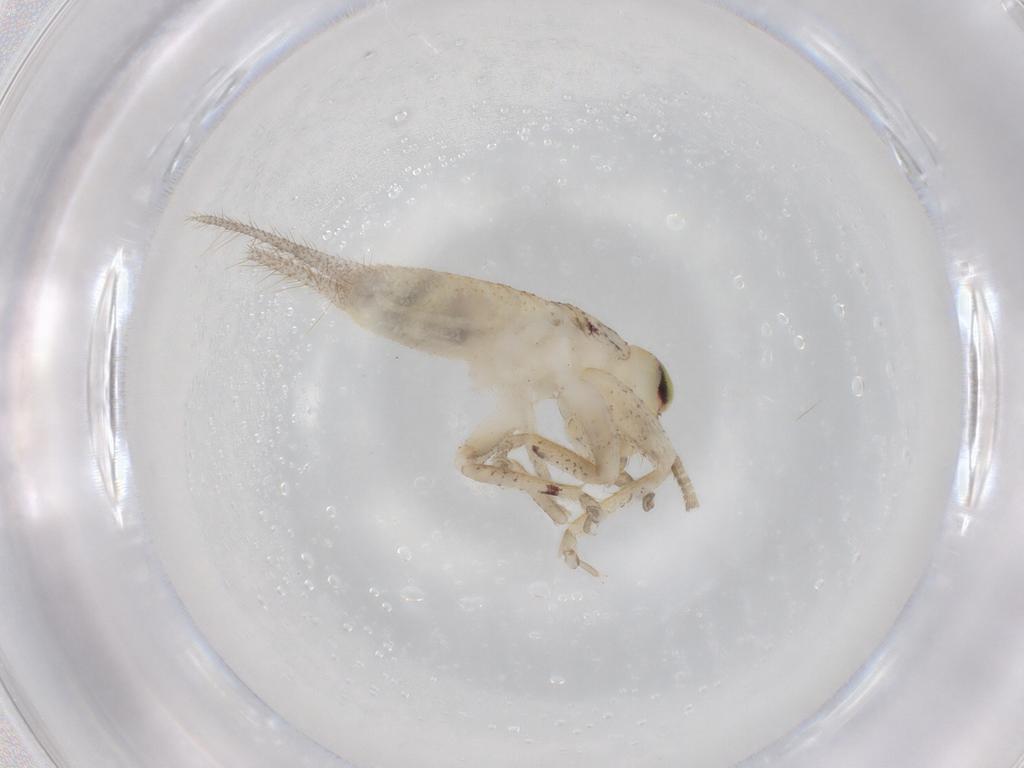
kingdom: Animalia
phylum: Arthropoda
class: Insecta
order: Orthoptera
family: Gryllidae
